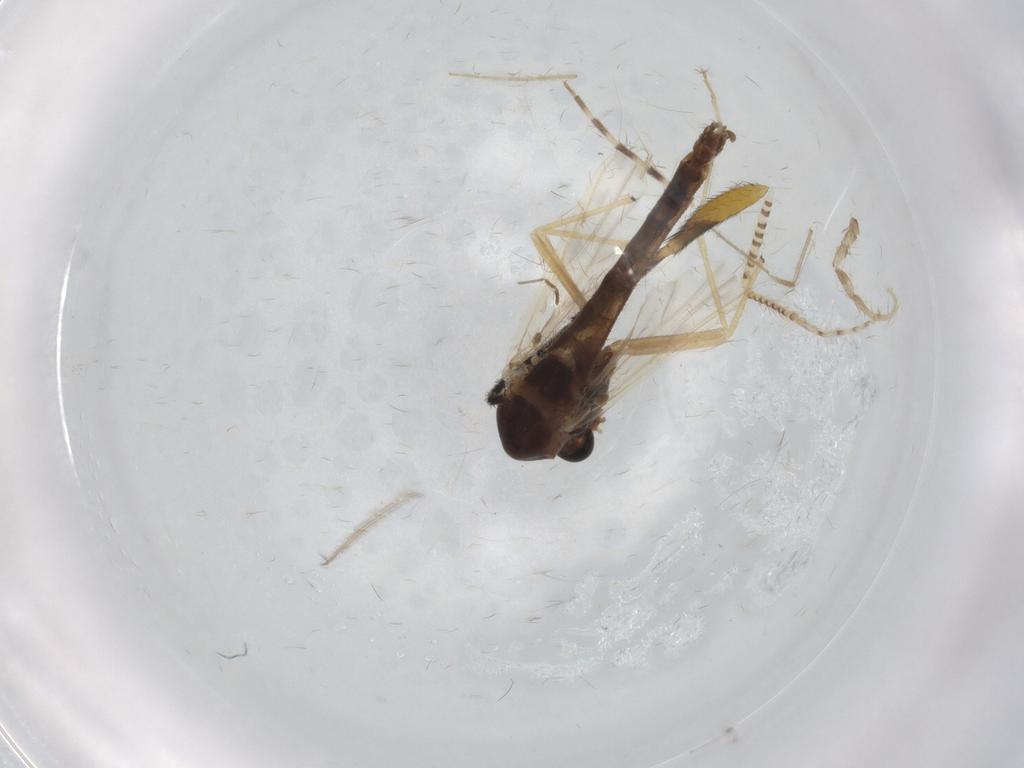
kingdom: Animalia
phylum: Arthropoda
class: Insecta
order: Diptera
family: Chironomidae
